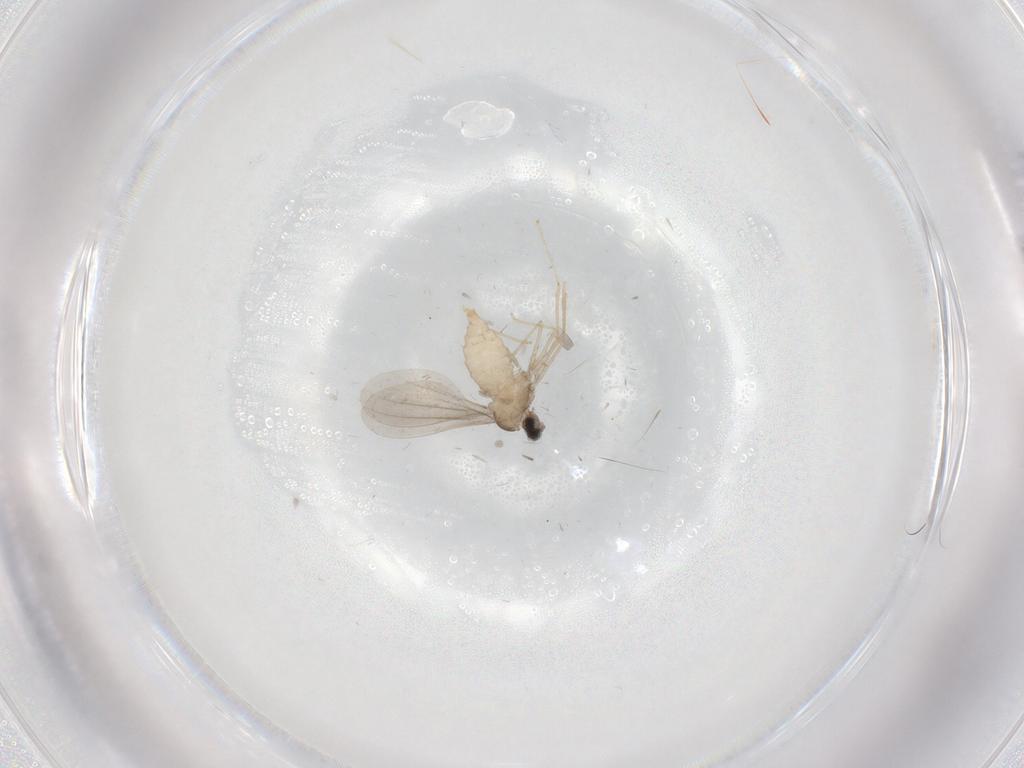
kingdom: Animalia
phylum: Arthropoda
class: Insecta
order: Diptera
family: Cecidomyiidae
